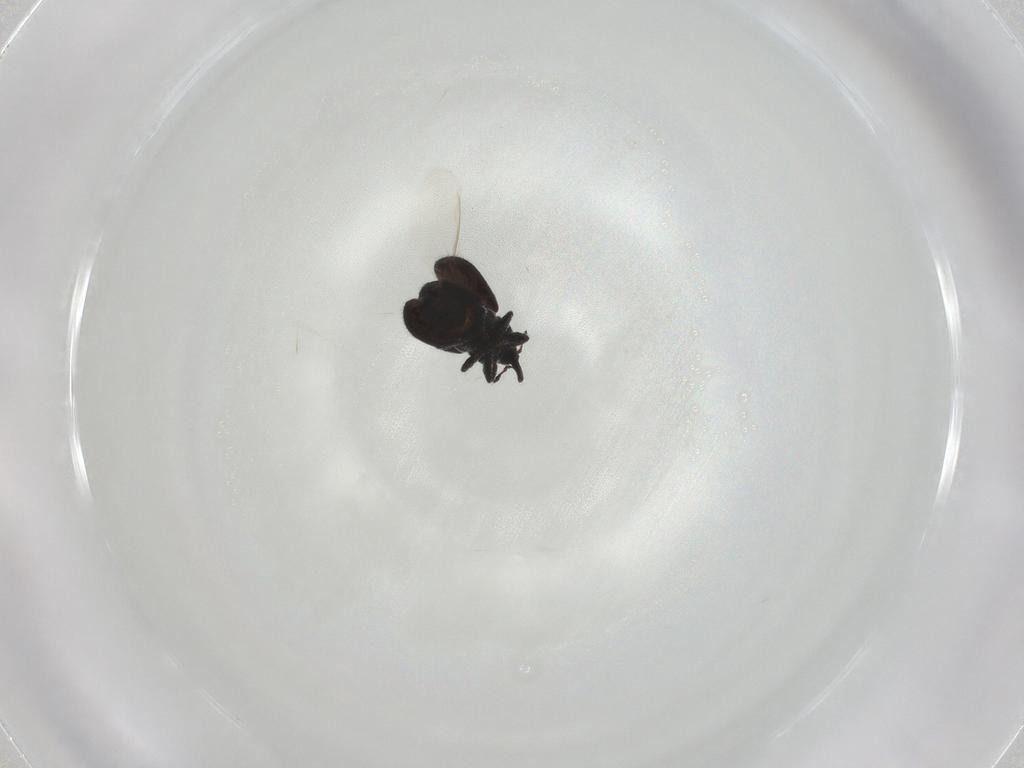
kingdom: Animalia
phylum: Arthropoda
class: Insecta
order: Coleoptera
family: Curculionidae
